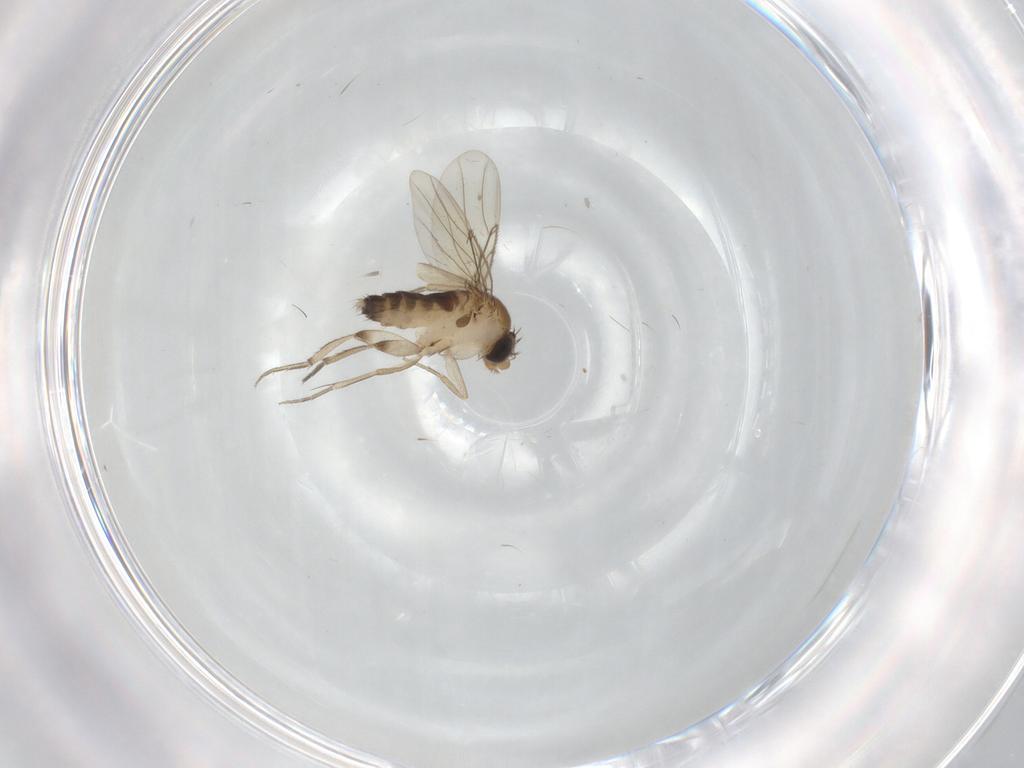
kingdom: Animalia
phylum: Arthropoda
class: Insecta
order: Diptera
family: Phoridae
